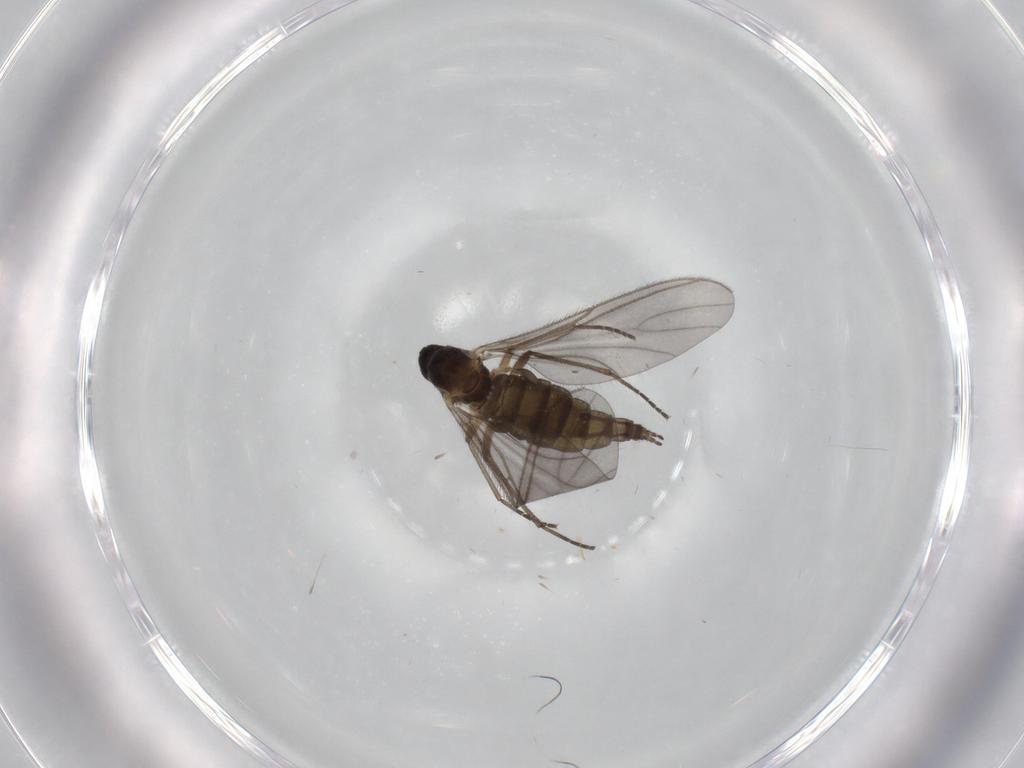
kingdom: Animalia
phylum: Arthropoda
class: Insecta
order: Diptera
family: Sciaridae
